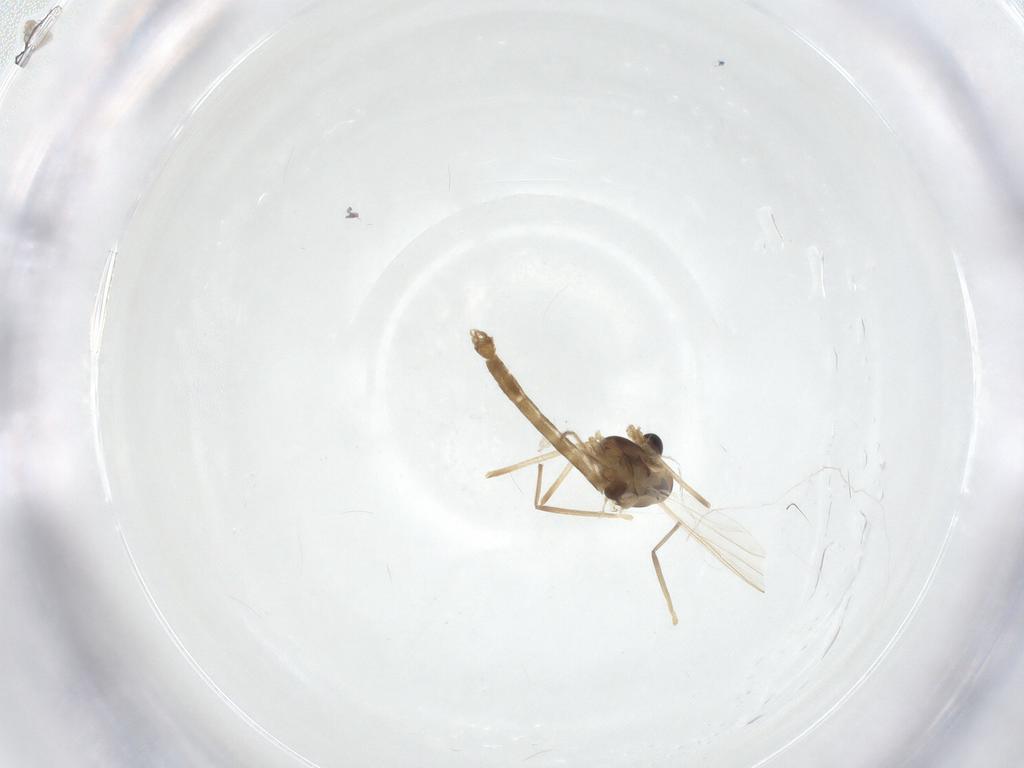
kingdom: Animalia
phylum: Arthropoda
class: Insecta
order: Diptera
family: Chironomidae
